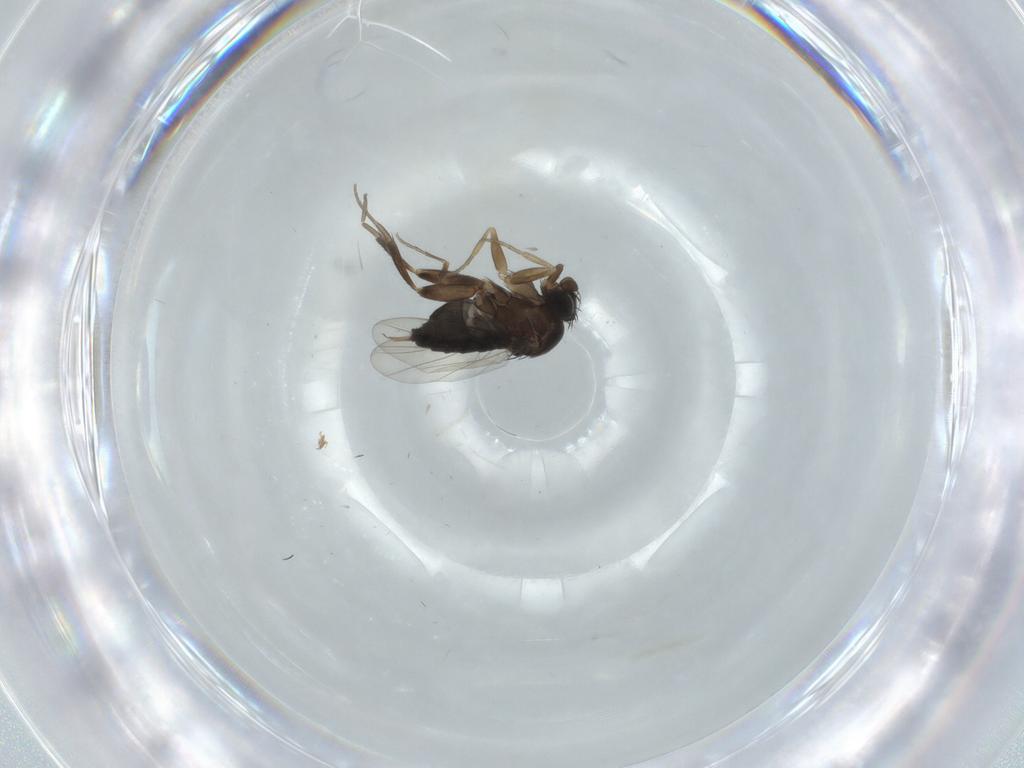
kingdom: Animalia
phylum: Arthropoda
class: Insecta
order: Diptera
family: Phoridae
